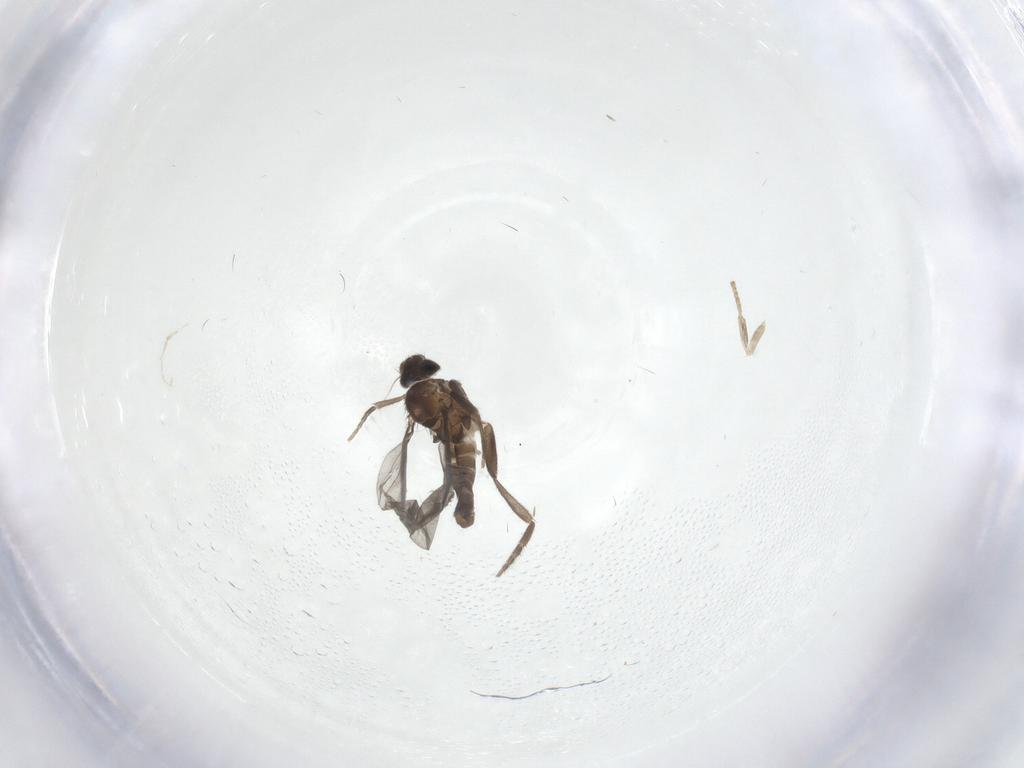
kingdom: Animalia
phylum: Arthropoda
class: Insecta
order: Diptera
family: Psychodidae
